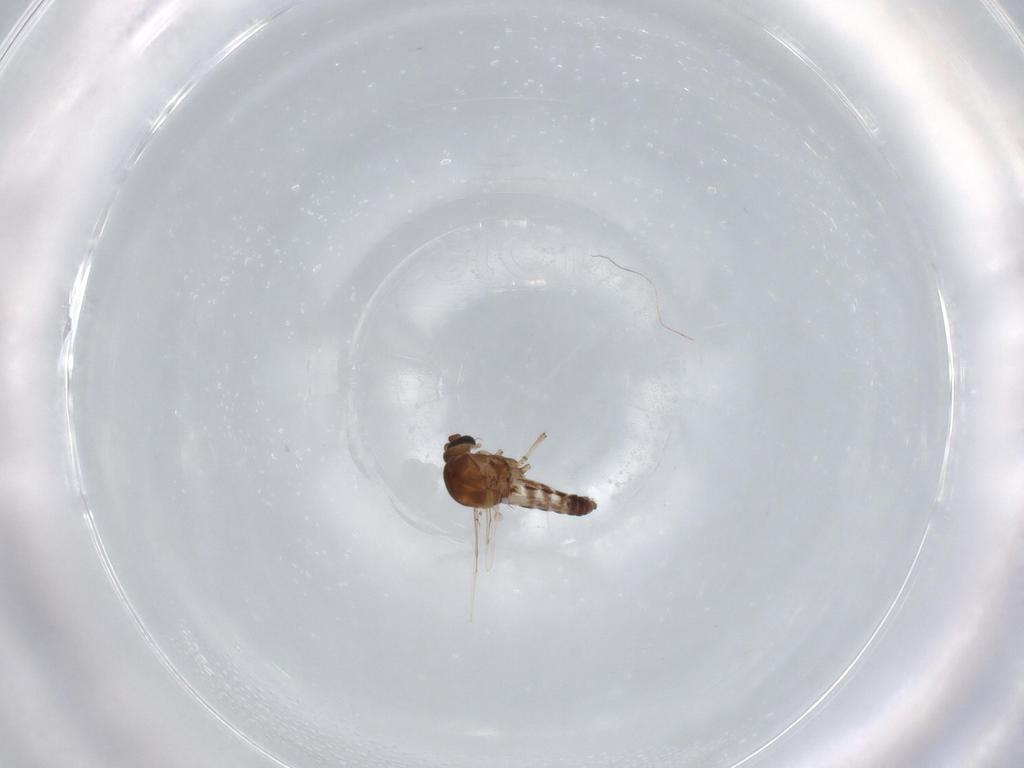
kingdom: Animalia
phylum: Arthropoda
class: Insecta
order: Diptera
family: Ceratopogonidae
